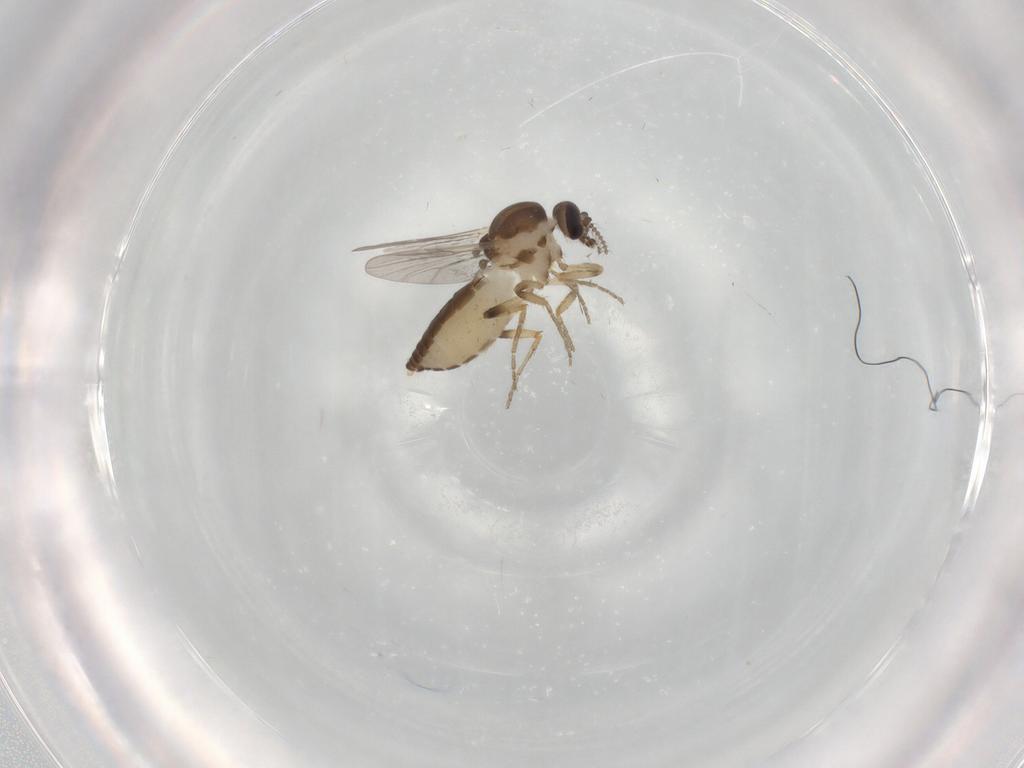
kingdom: Animalia
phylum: Arthropoda
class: Insecta
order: Diptera
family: Ceratopogonidae
